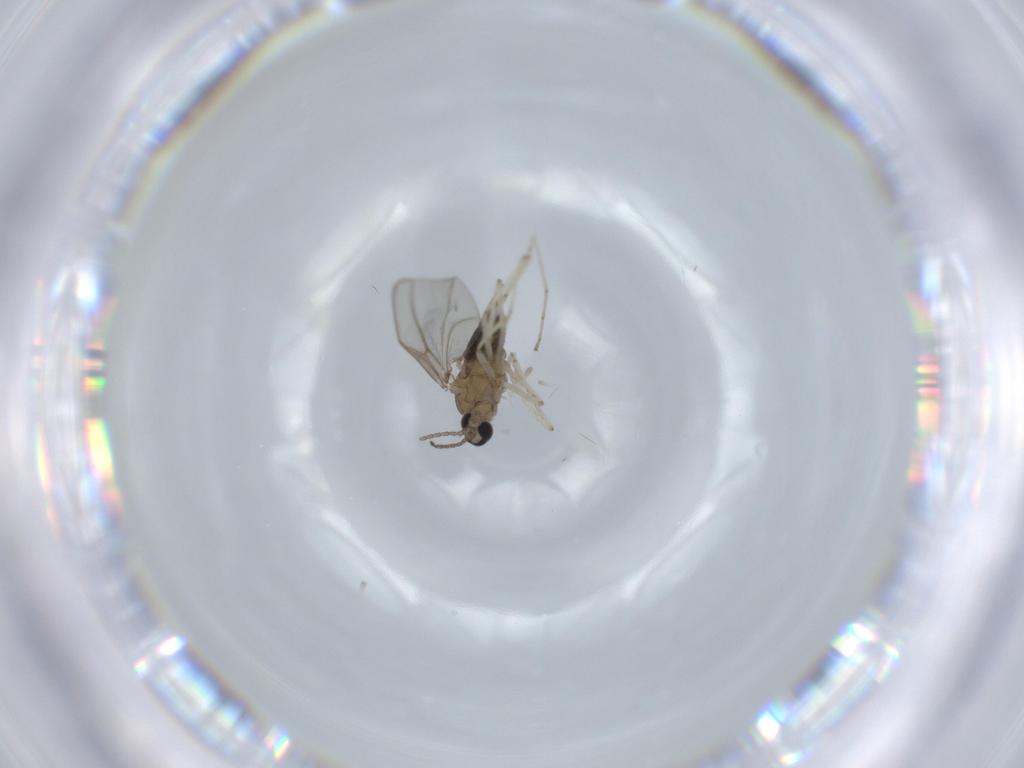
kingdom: Animalia
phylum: Arthropoda
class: Insecta
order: Diptera
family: Cecidomyiidae
